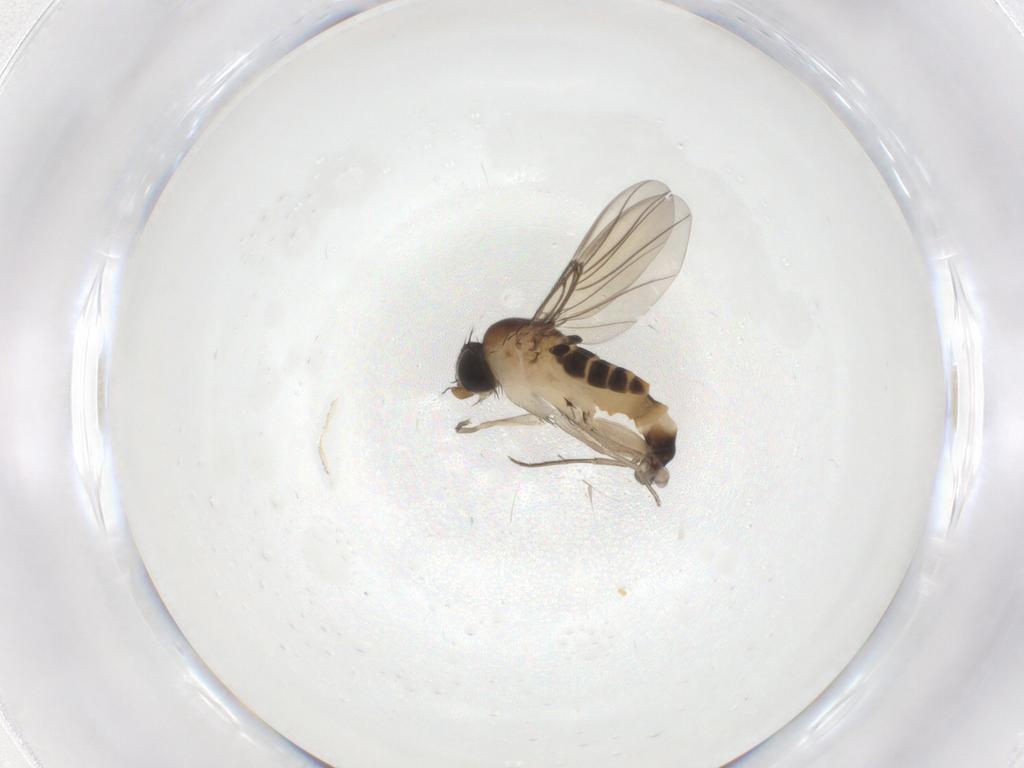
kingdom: Animalia
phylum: Arthropoda
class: Insecta
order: Diptera
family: Phoridae
